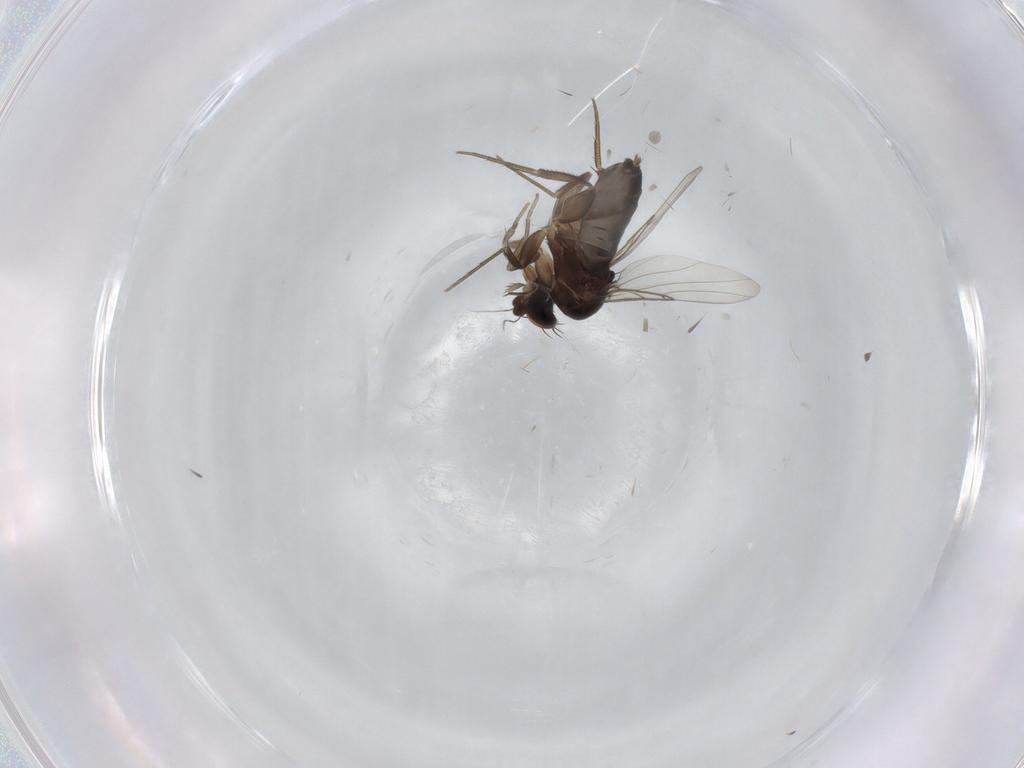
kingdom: Animalia
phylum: Arthropoda
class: Insecta
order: Diptera
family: Phoridae
